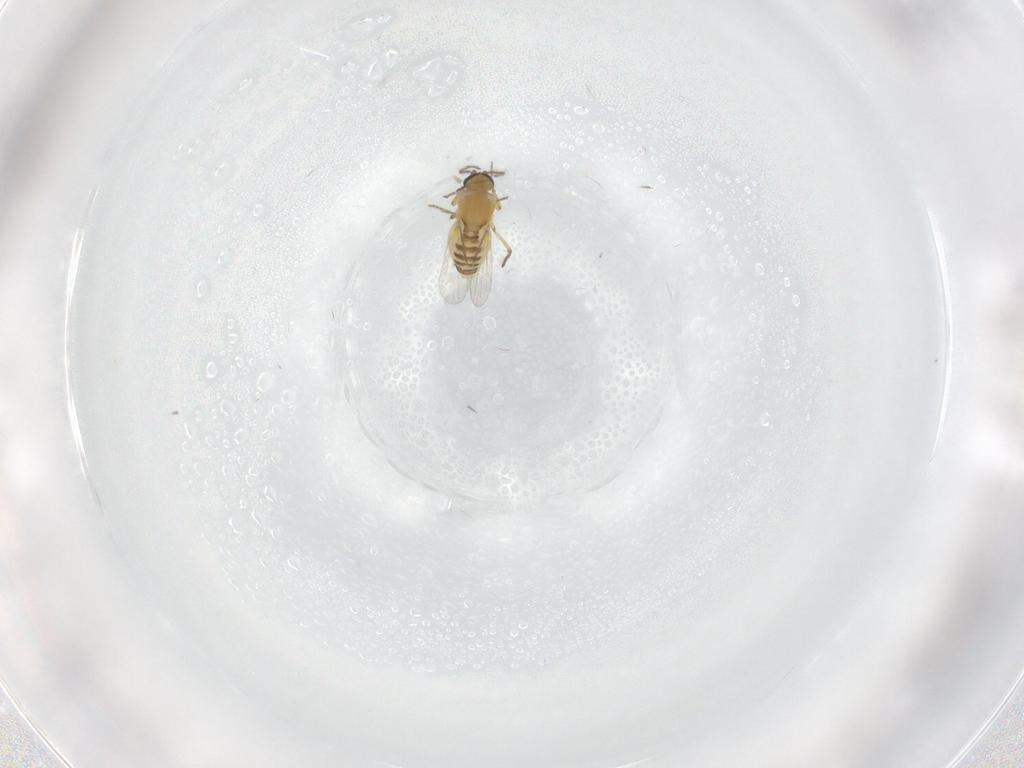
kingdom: Animalia
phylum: Arthropoda
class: Insecta
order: Diptera
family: Ceratopogonidae
